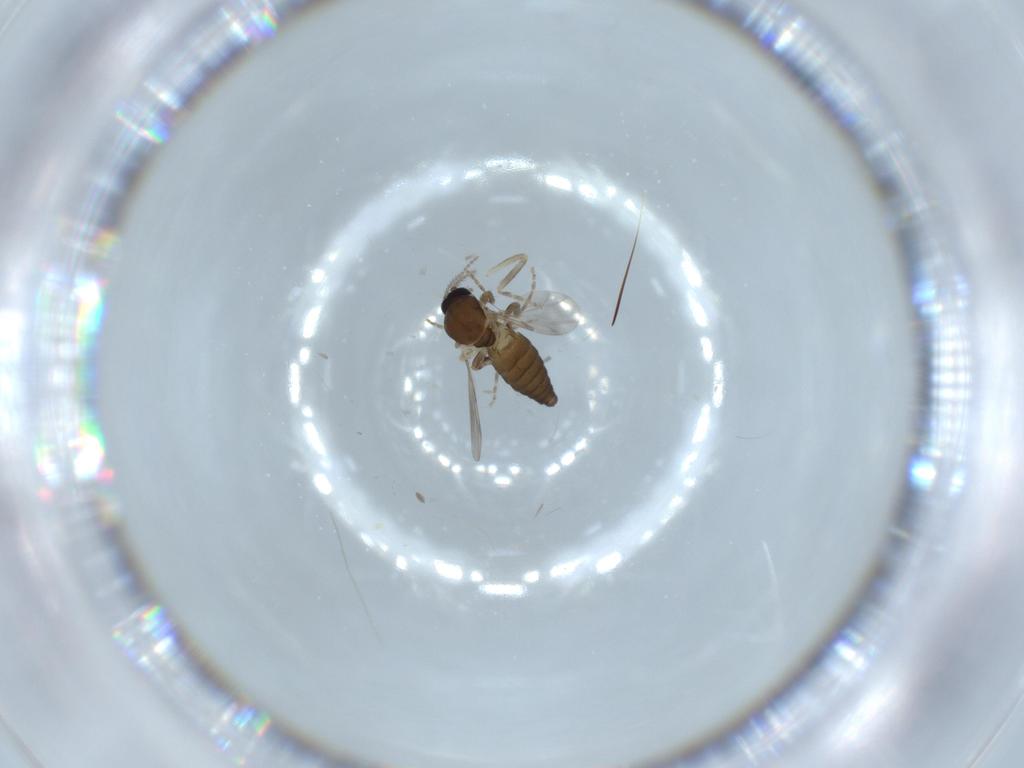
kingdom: Animalia
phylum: Arthropoda
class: Insecta
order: Diptera
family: Ceratopogonidae
